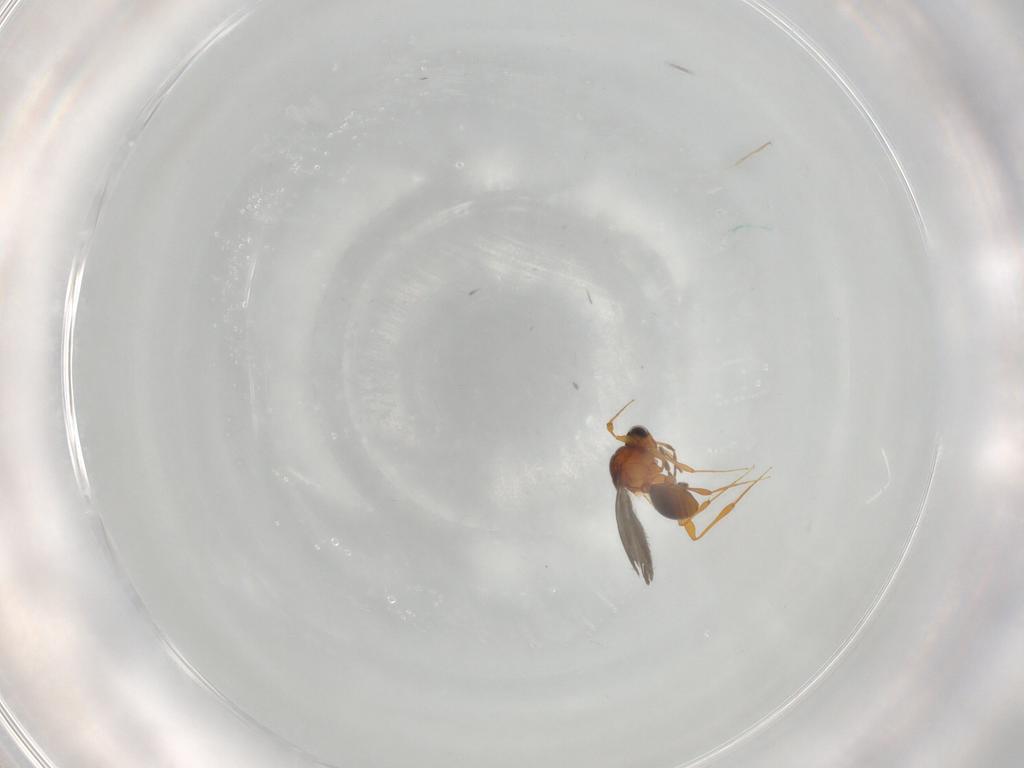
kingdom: Animalia
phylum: Arthropoda
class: Insecta
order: Hymenoptera
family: Platygastridae
